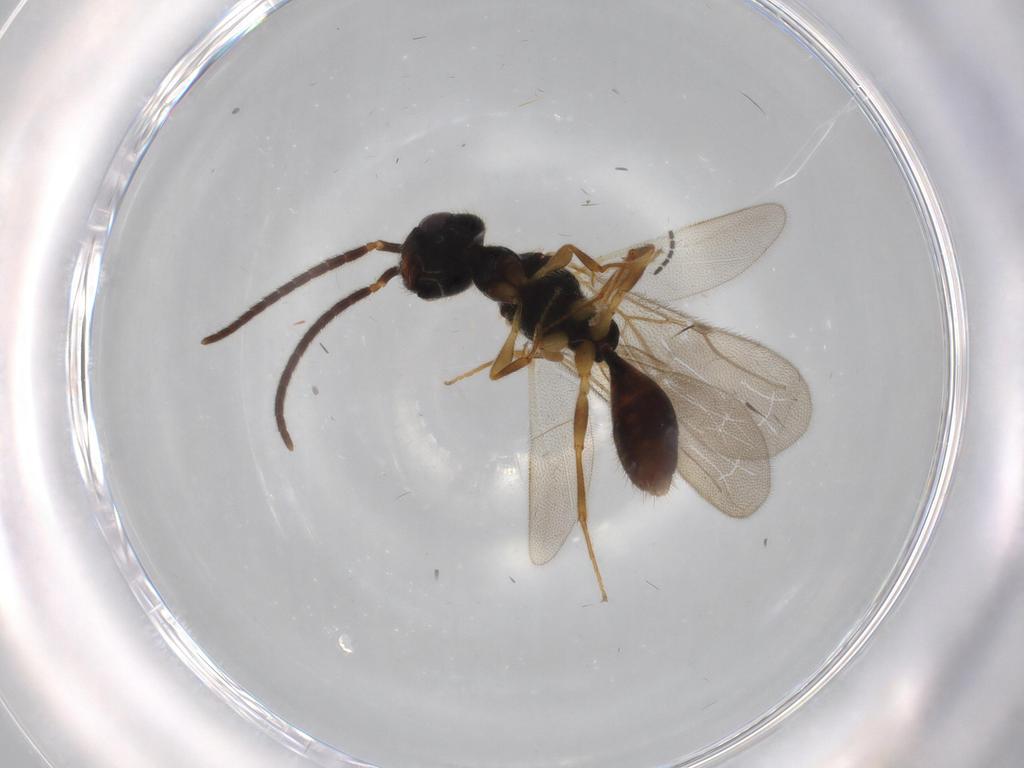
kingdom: Animalia
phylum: Arthropoda
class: Insecta
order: Hymenoptera
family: Bethylidae
